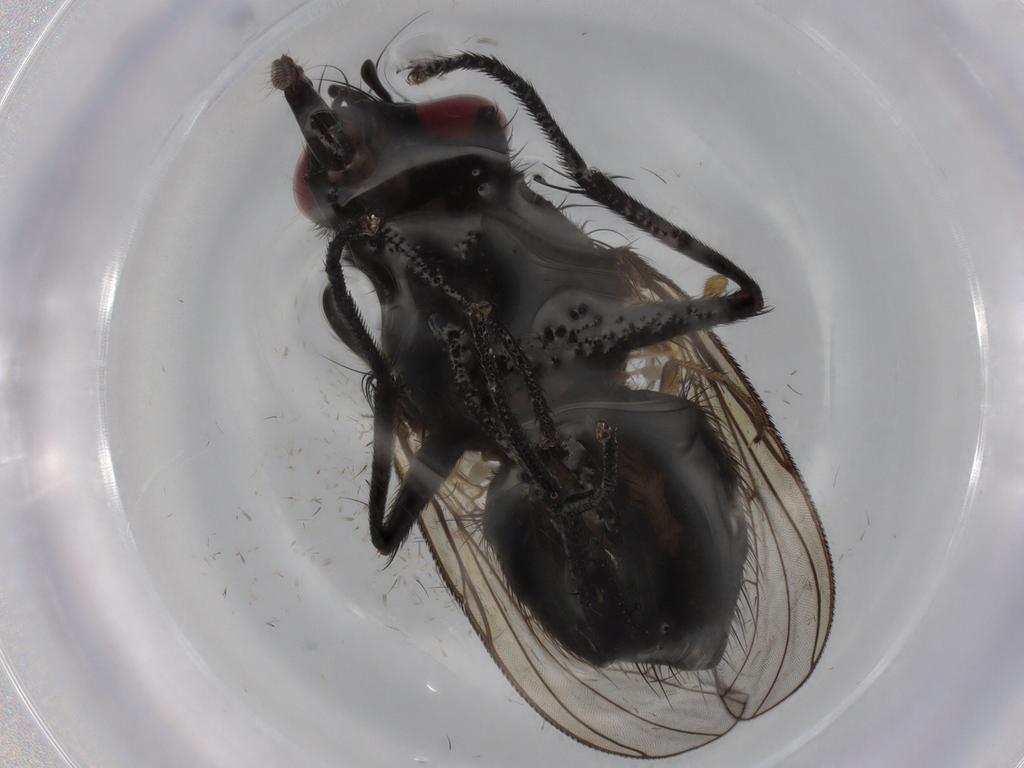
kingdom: Animalia
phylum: Arthropoda
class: Insecta
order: Diptera
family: Muscidae
